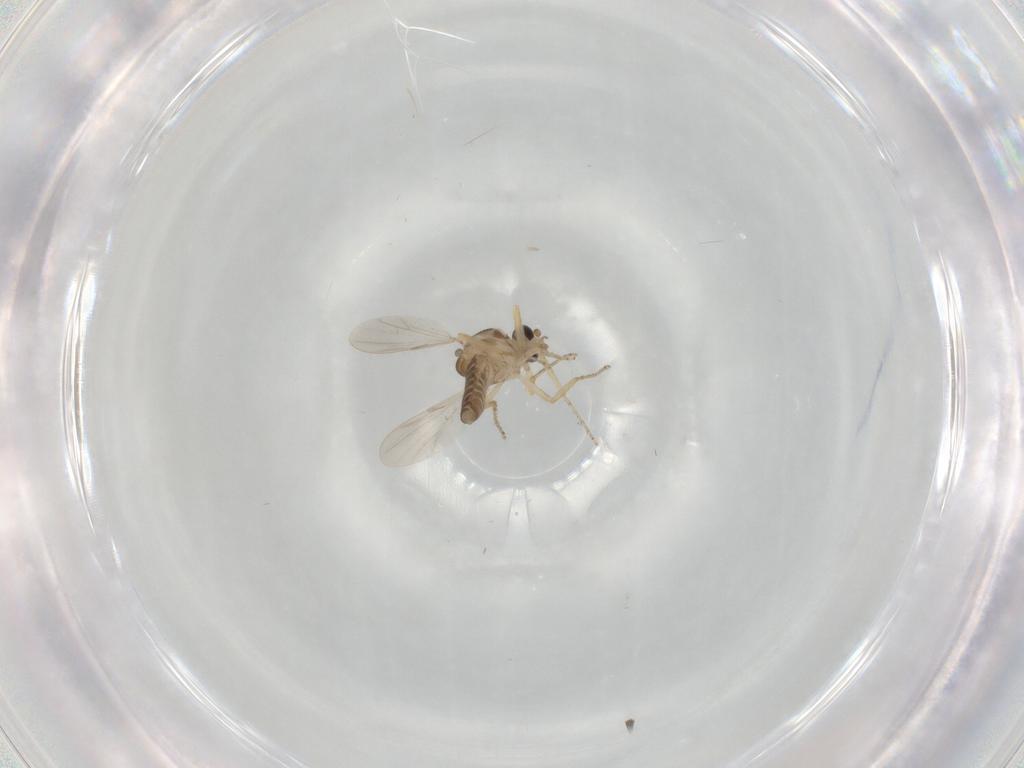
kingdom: Animalia
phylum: Arthropoda
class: Insecta
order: Diptera
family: Ceratopogonidae
